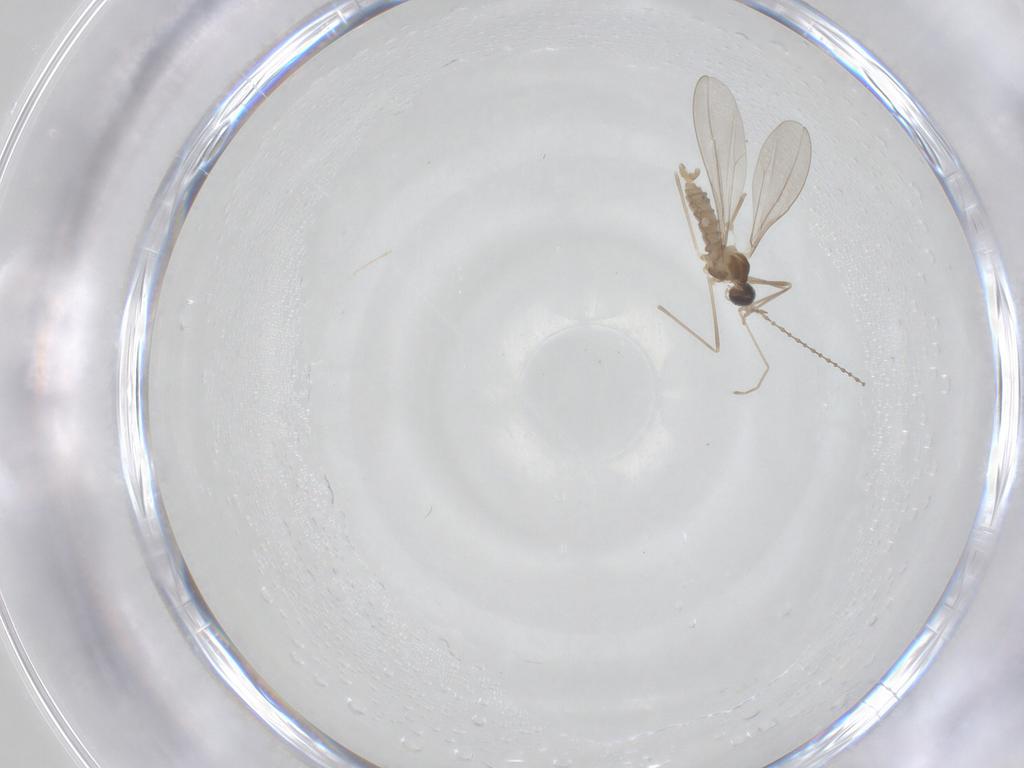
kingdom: Animalia
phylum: Arthropoda
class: Insecta
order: Diptera
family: Cecidomyiidae
